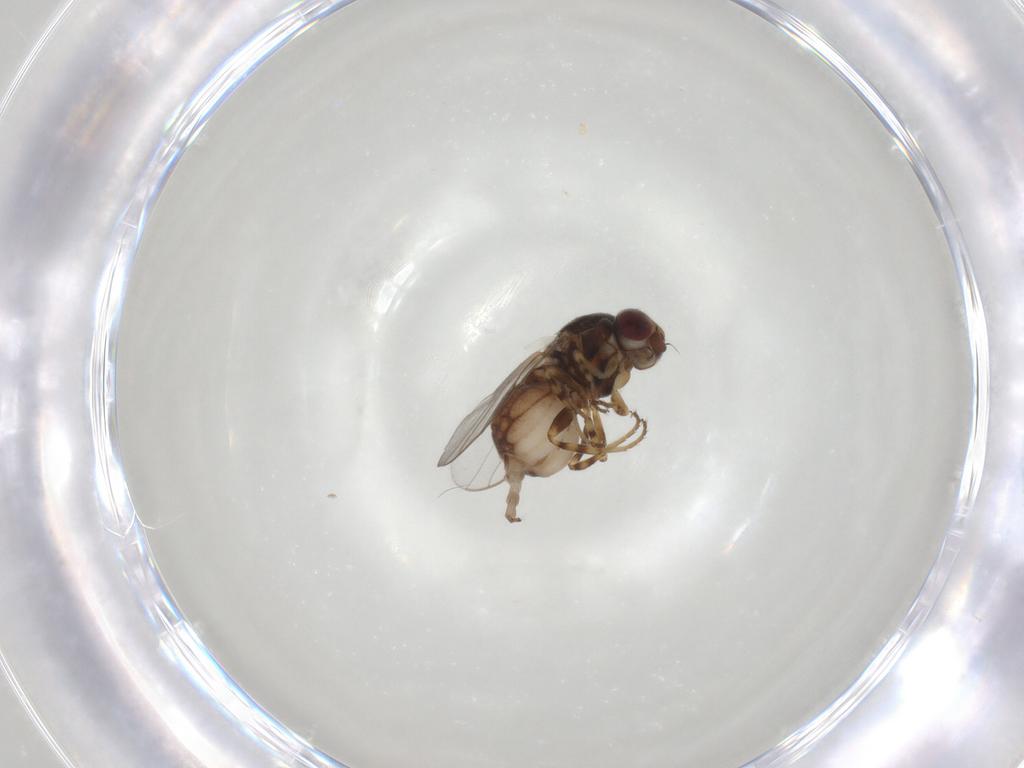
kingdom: Animalia
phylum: Arthropoda
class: Insecta
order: Diptera
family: Chloropidae
